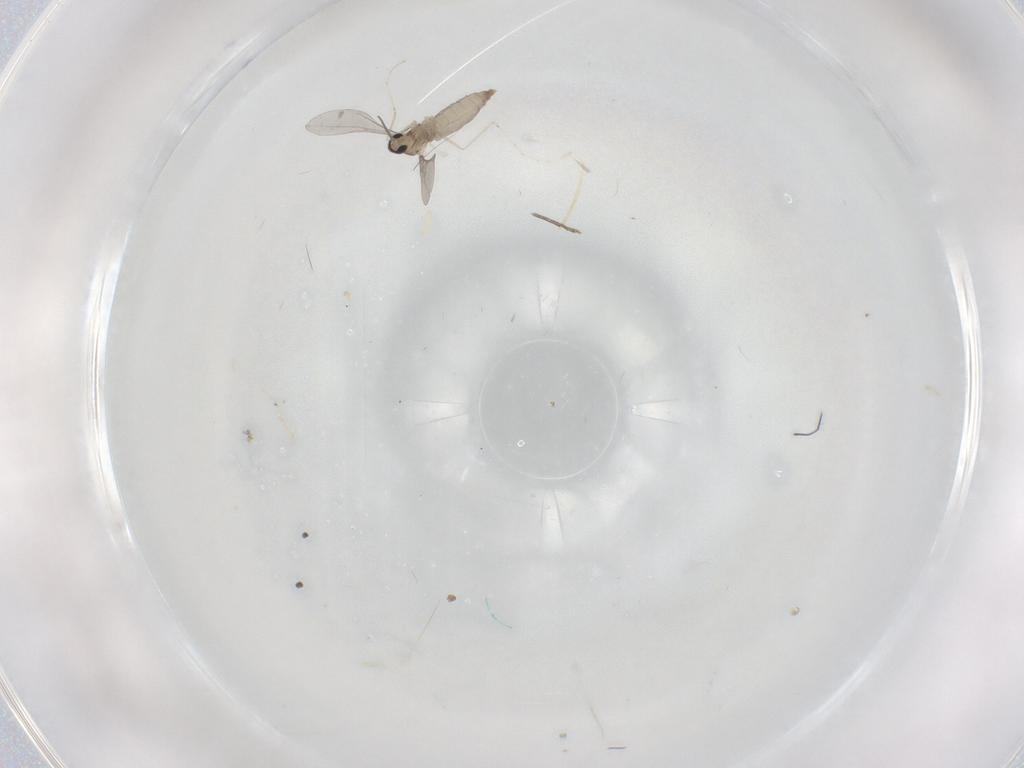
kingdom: Animalia
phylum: Arthropoda
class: Insecta
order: Diptera
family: Cecidomyiidae
